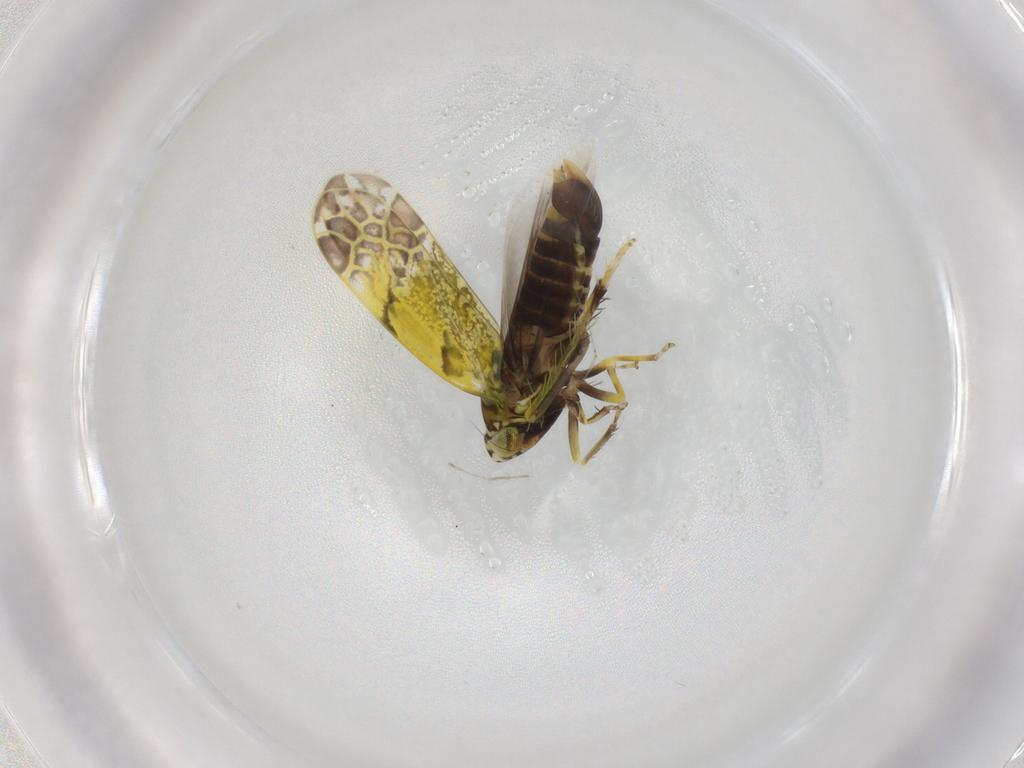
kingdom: Animalia
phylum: Arthropoda
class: Insecta
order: Hemiptera
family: Cicadellidae
